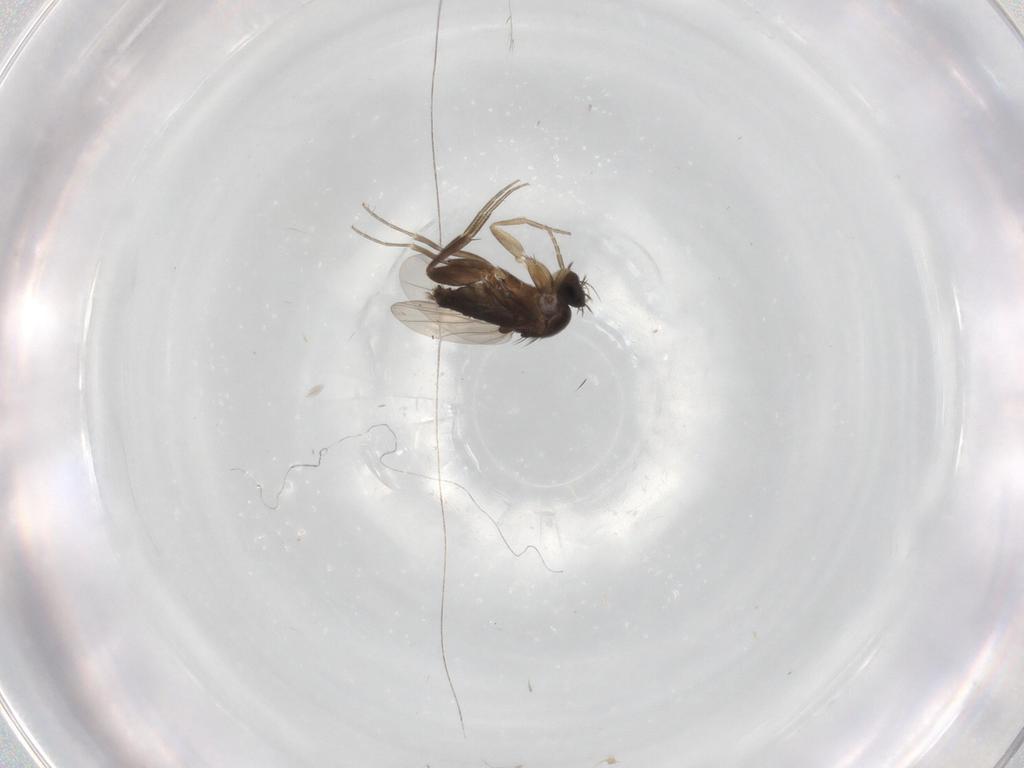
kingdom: Animalia
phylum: Arthropoda
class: Insecta
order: Diptera
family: Phoridae
